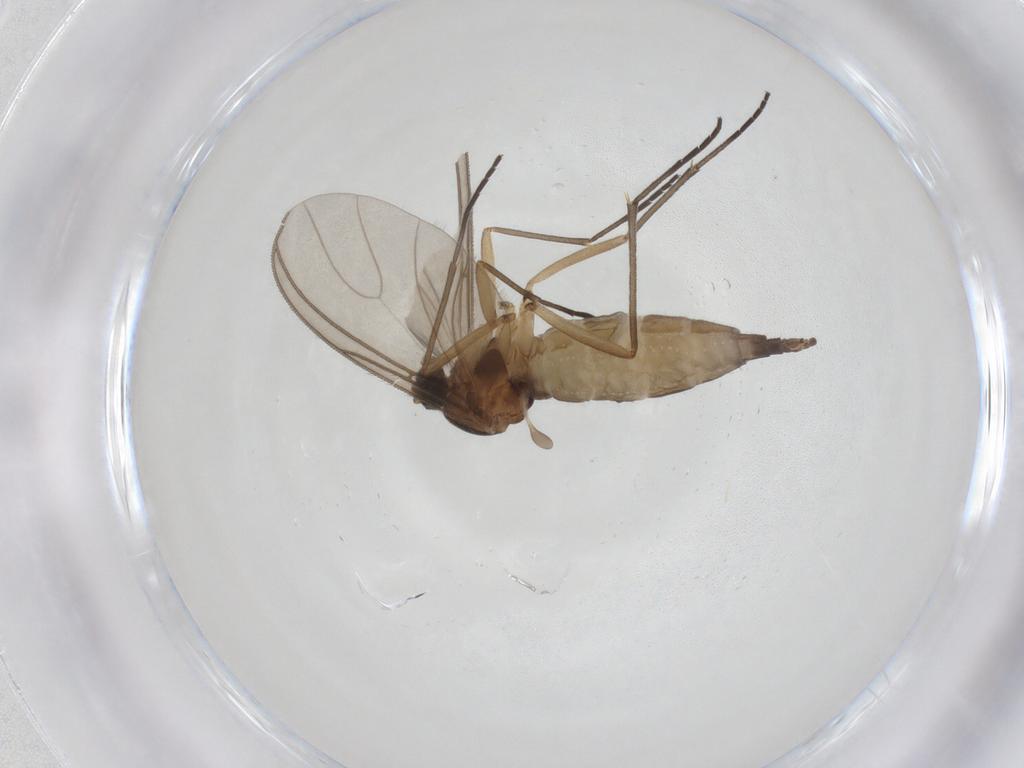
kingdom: Animalia
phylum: Arthropoda
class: Insecta
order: Diptera
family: Sciaridae
